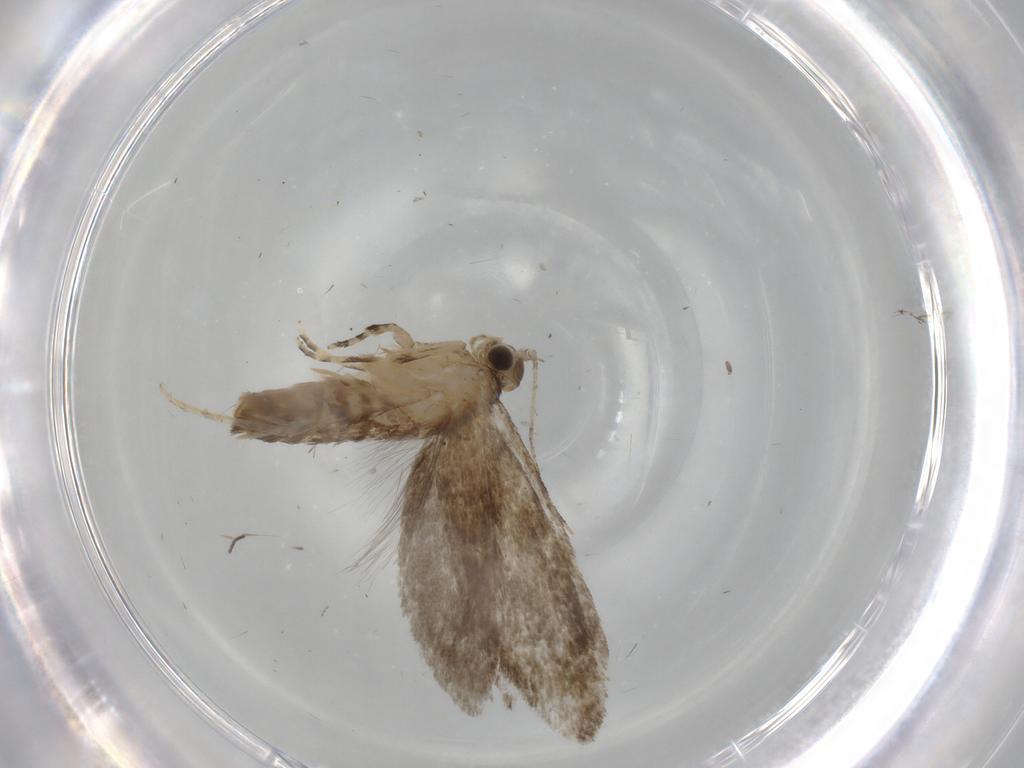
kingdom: Animalia
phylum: Arthropoda
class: Insecta
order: Lepidoptera
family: Tineidae
